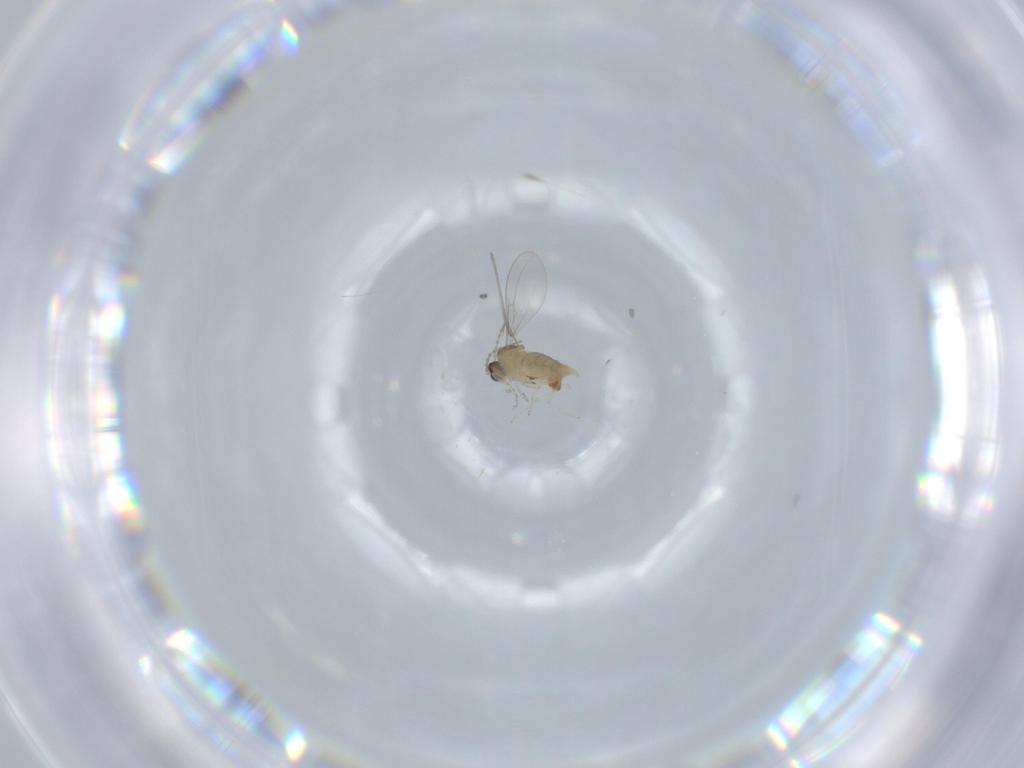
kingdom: Animalia
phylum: Arthropoda
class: Insecta
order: Diptera
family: Cecidomyiidae
